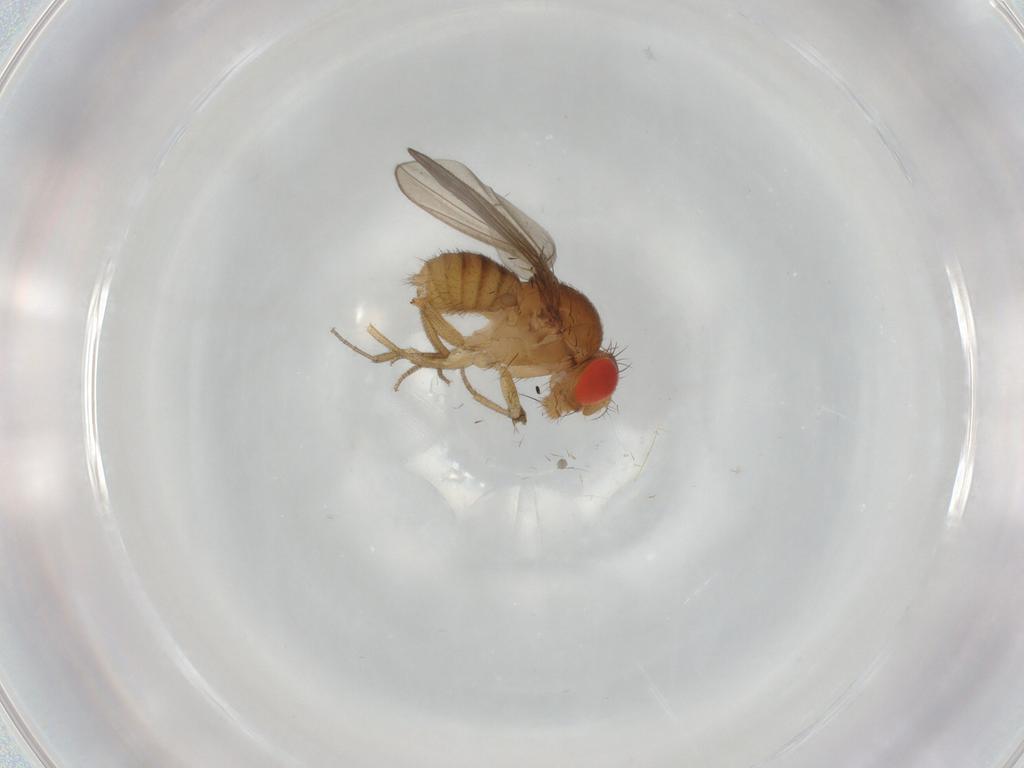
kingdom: Animalia
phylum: Arthropoda
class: Insecta
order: Diptera
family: Drosophilidae
